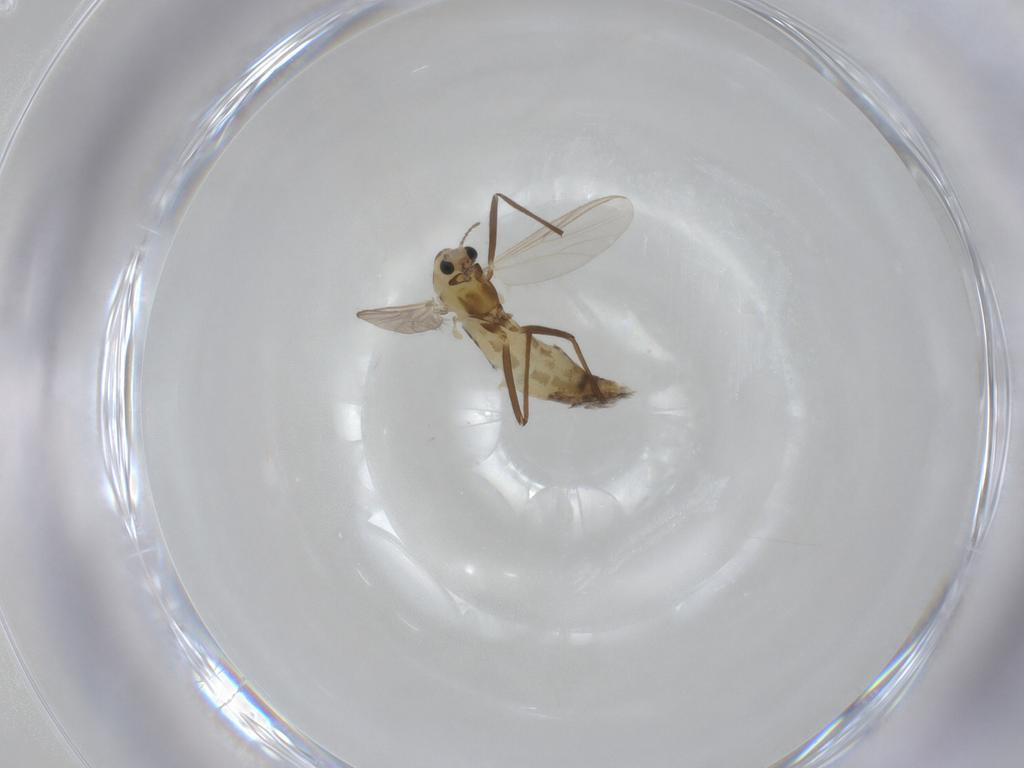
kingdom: Animalia
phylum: Arthropoda
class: Insecta
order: Diptera
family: Chironomidae
